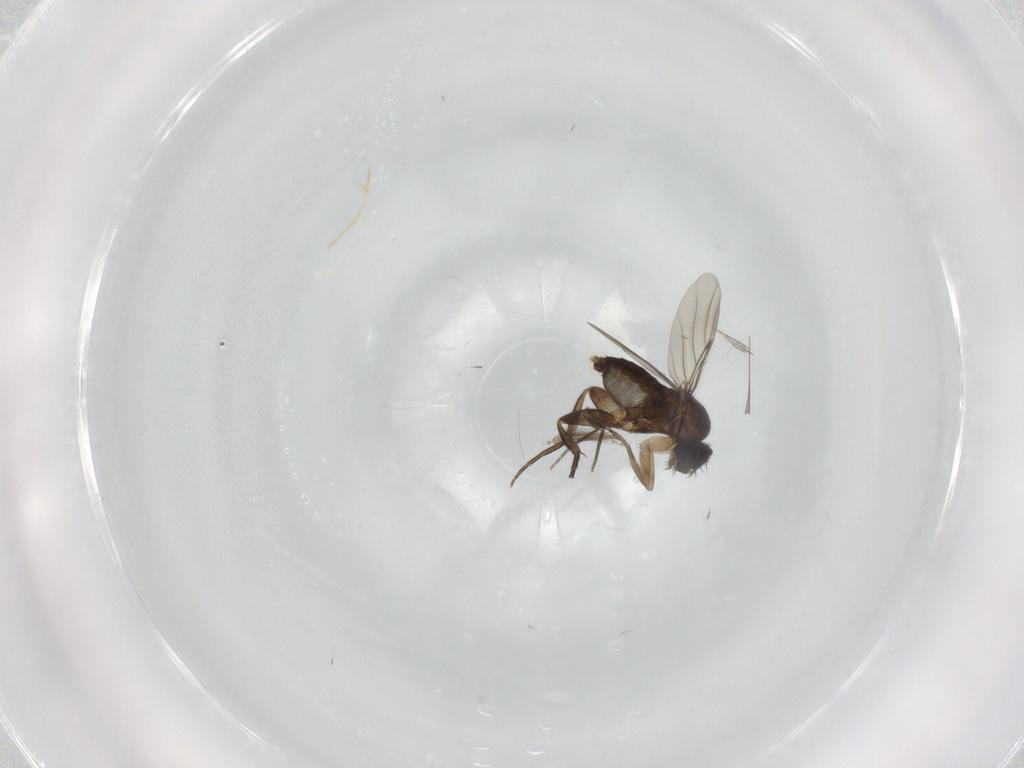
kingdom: Animalia
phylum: Arthropoda
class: Insecta
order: Diptera
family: Phoridae
